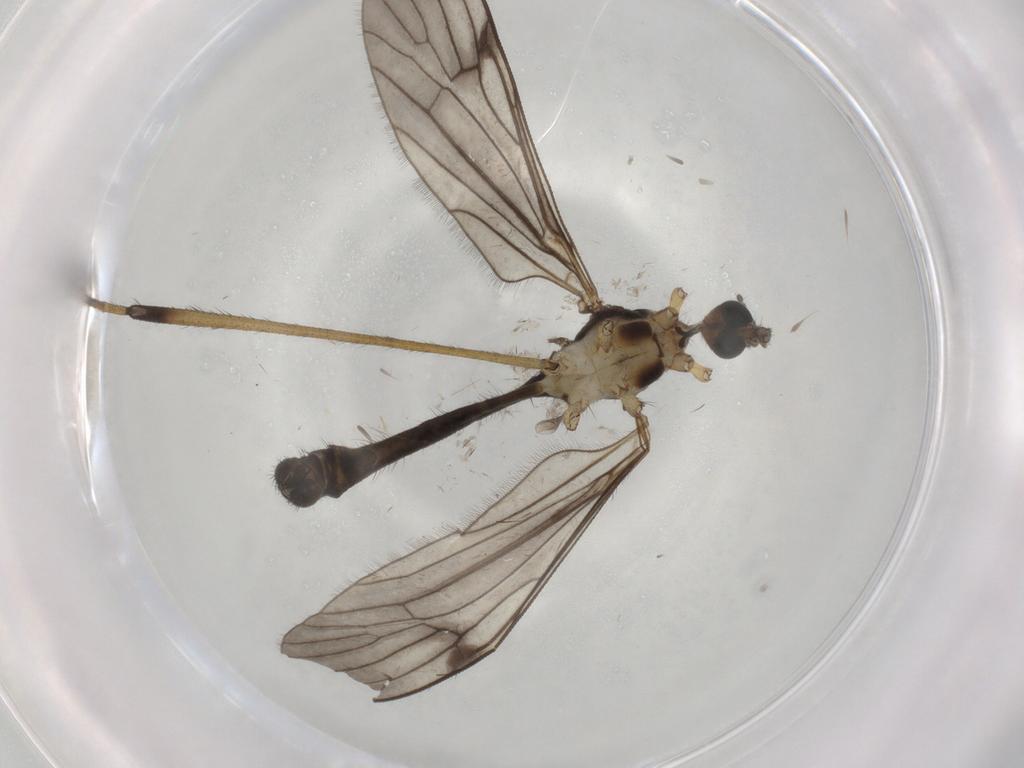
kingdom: Animalia
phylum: Arthropoda
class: Insecta
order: Diptera
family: Limoniidae
